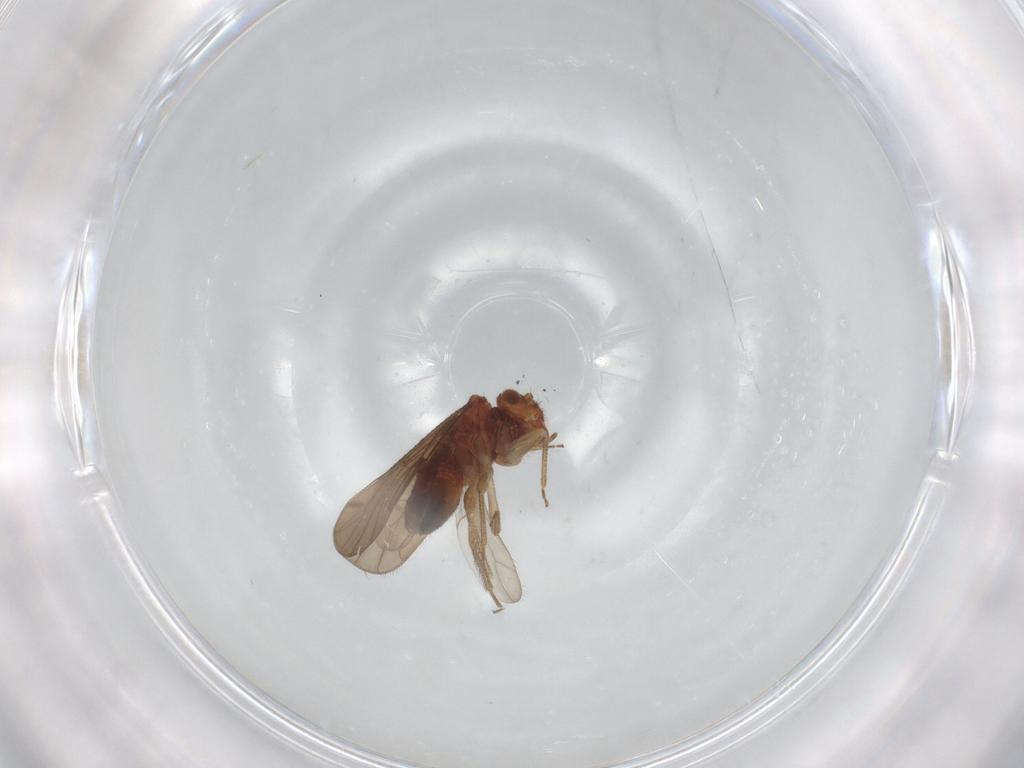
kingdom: Animalia
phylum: Arthropoda
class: Insecta
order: Psocodea
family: Ectopsocidae
